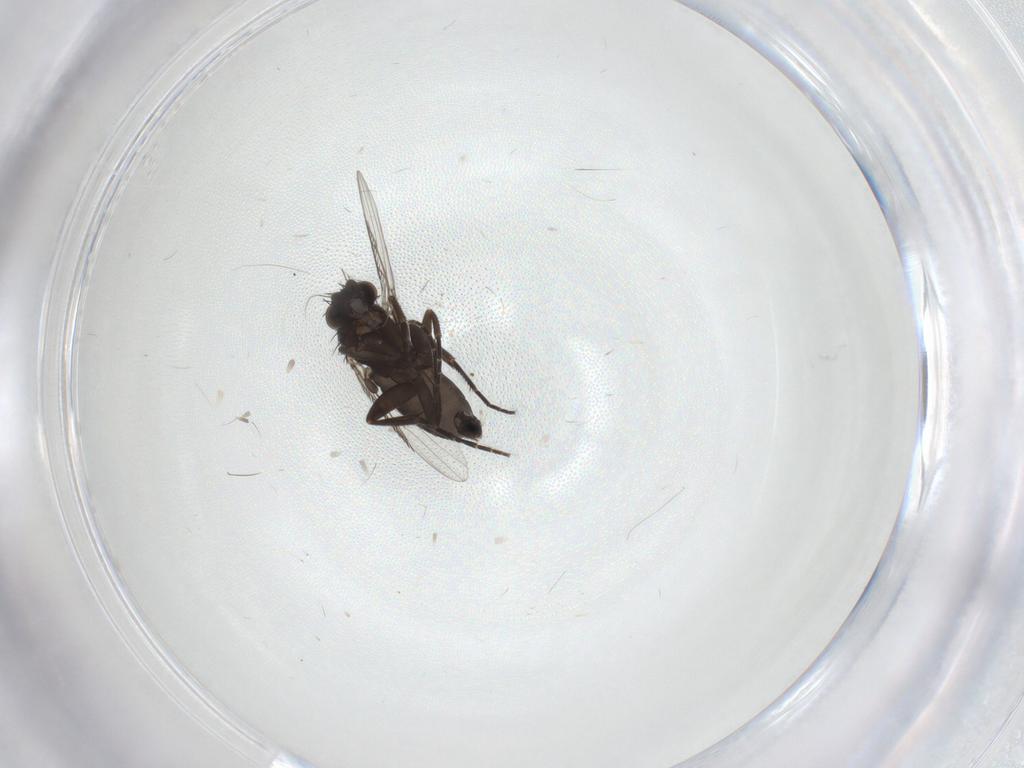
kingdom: Animalia
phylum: Arthropoda
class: Insecta
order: Diptera
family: Phoridae
